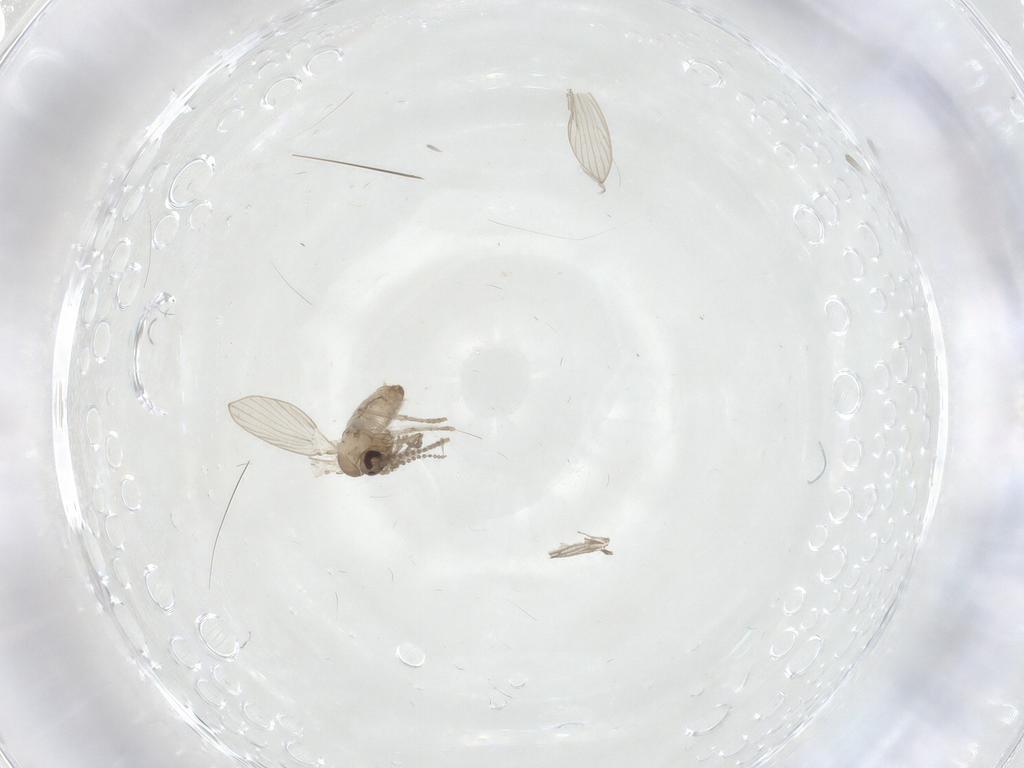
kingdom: Animalia
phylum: Arthropoda
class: Insecta
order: Diptera
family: Psychodidae
